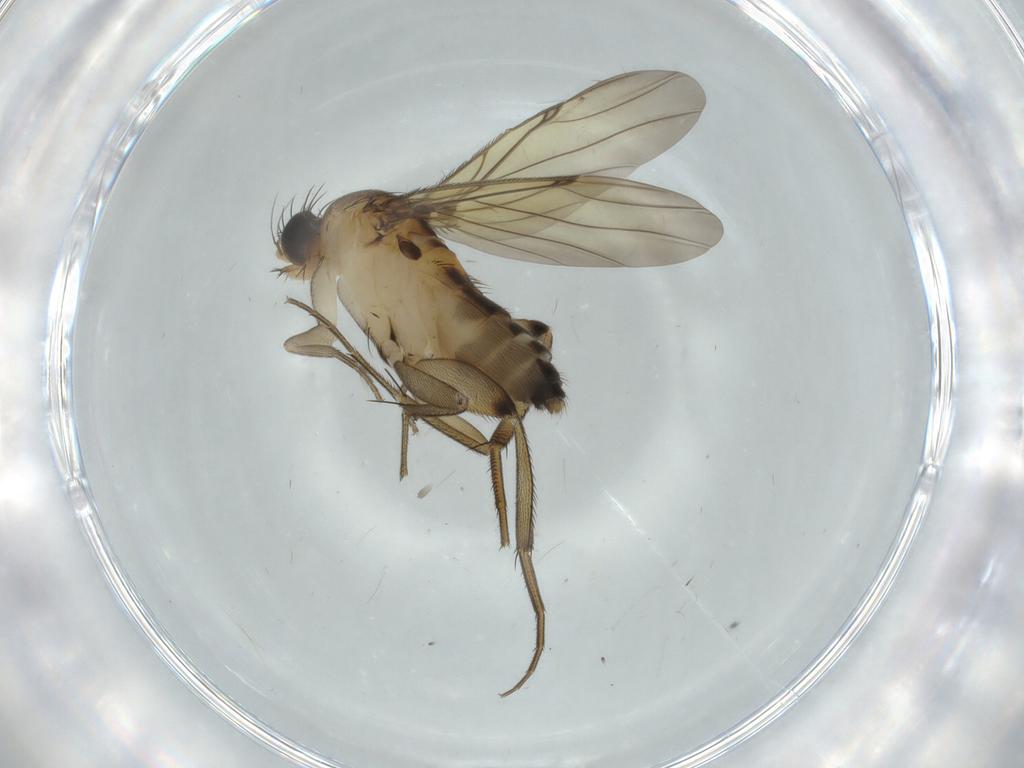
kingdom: Animalia
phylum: Arthropoda
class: Insecta
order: Diptera
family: Phoridae
